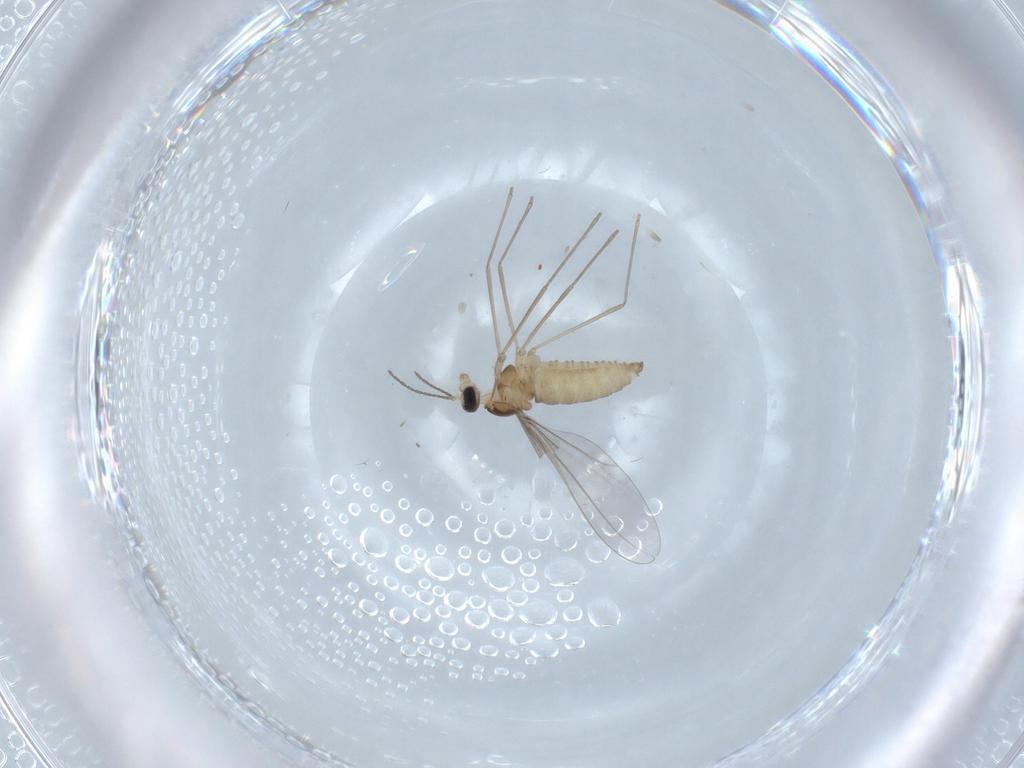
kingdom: Animalia
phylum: Arthropoda
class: Insecta
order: Diptera
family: Cecidomyiidae
